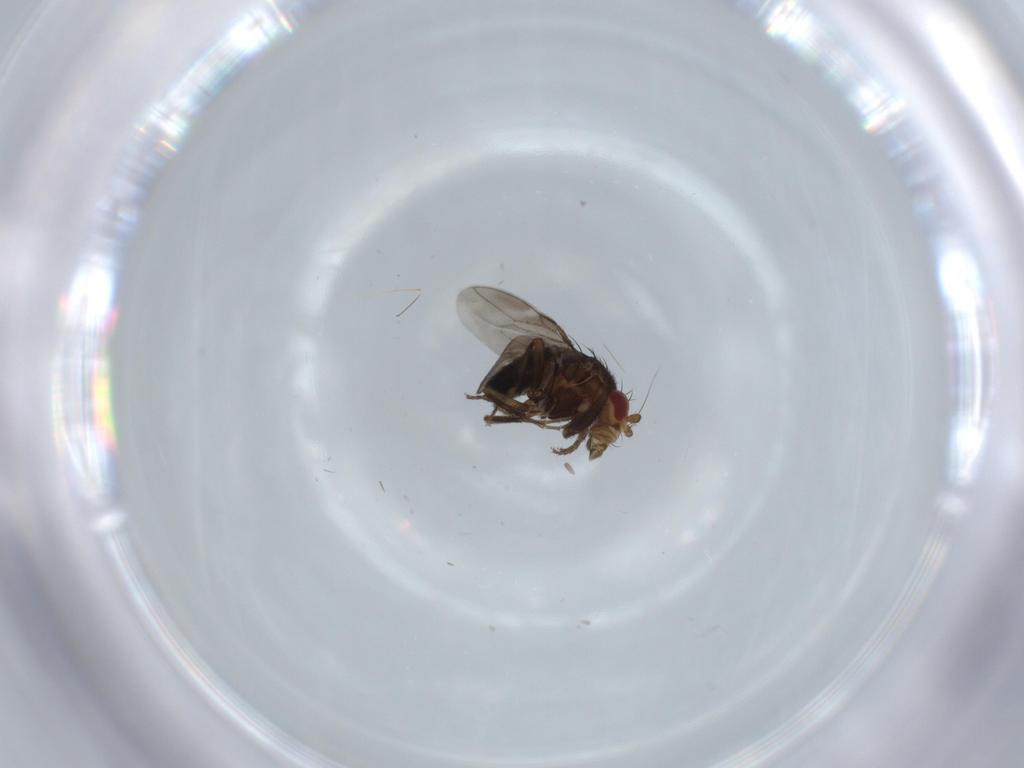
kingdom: Animalia
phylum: Arthropoda
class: Insecta
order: Diptera
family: Sphaeroceridae
